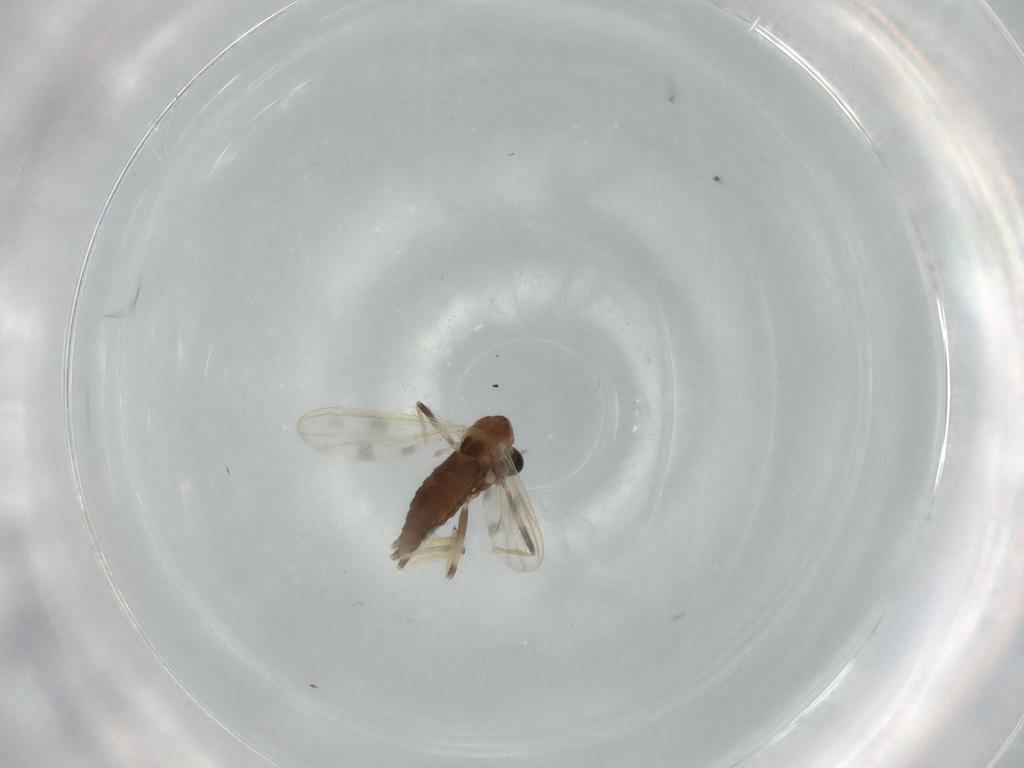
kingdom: Animalia
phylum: Arthropoda
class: Insecta
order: Diptera
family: Chironomidae
